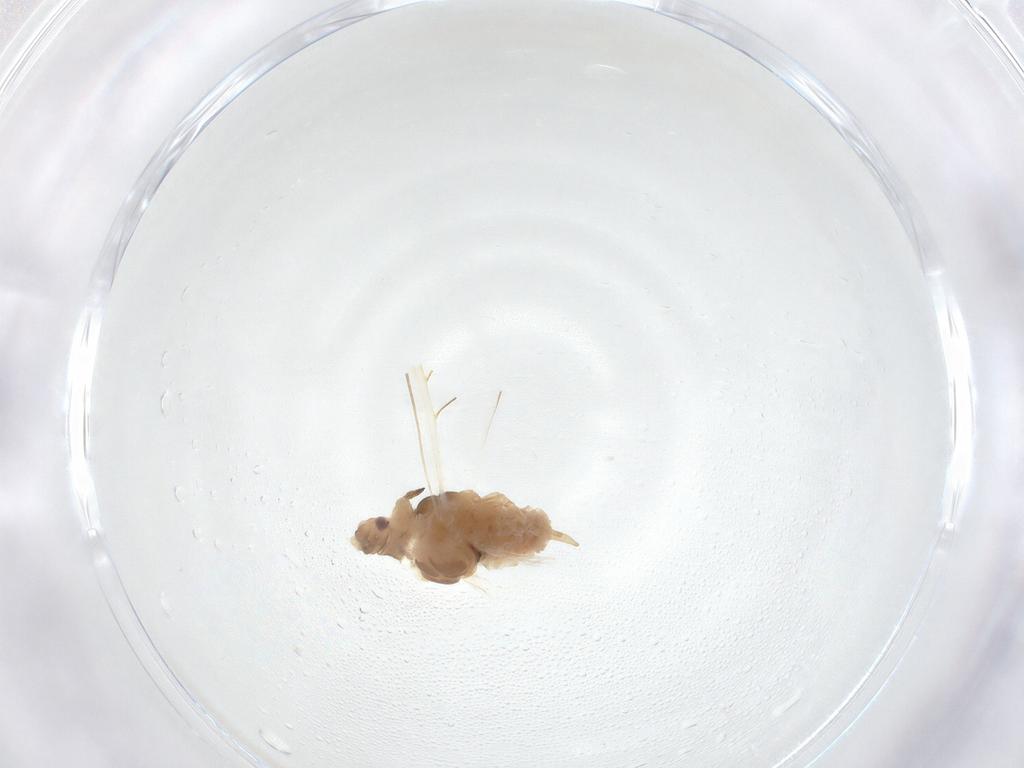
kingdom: Animalia
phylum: Arthropoda
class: Insecta
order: Hemiptera
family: Aphididae
